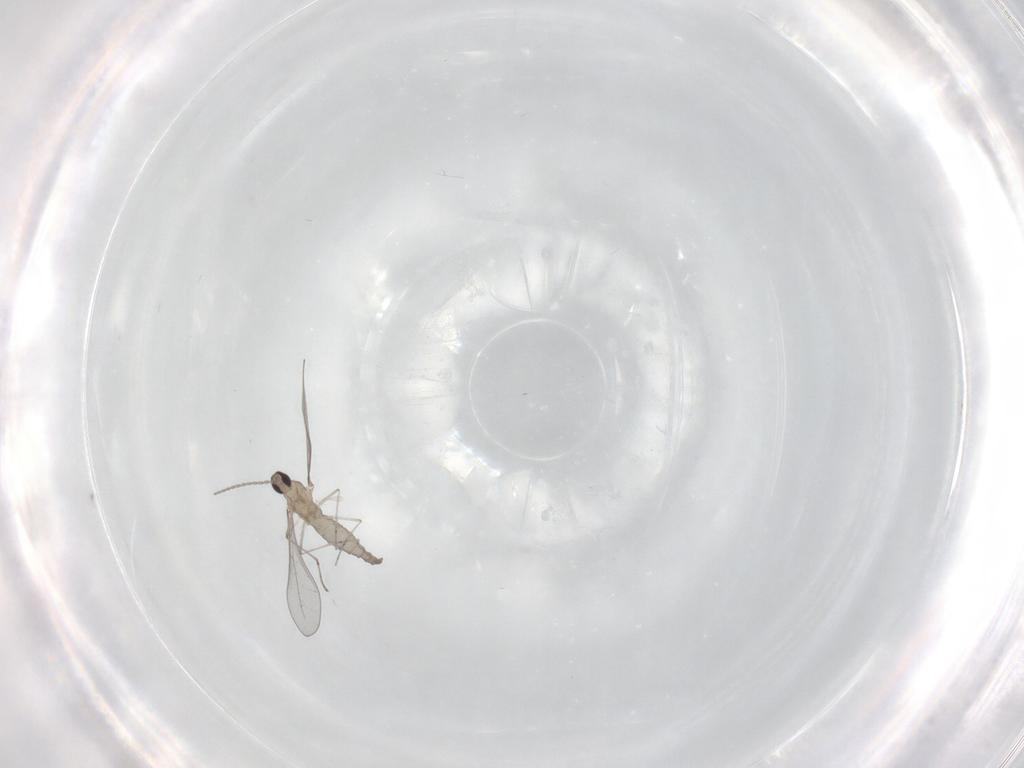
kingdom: Animalia
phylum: Arthropoda
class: Insecta
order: Diptera
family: Milichiidae
